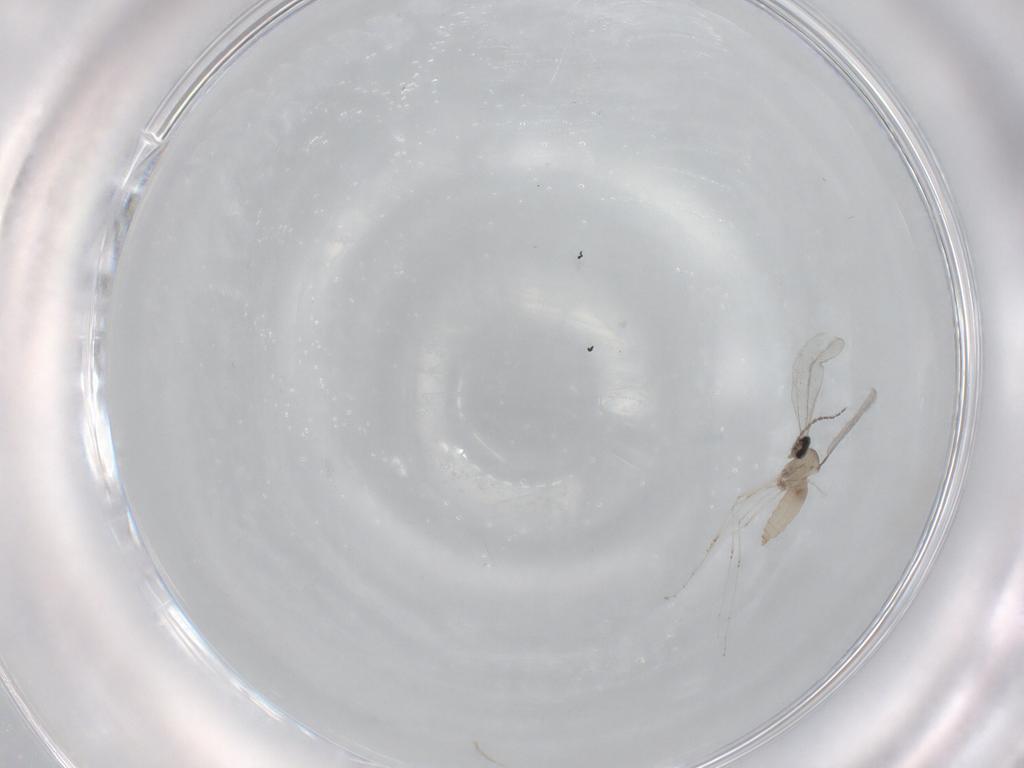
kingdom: Animalia
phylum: Arthropoda
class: Insecta
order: Diptera
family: Cecidomyiidae
